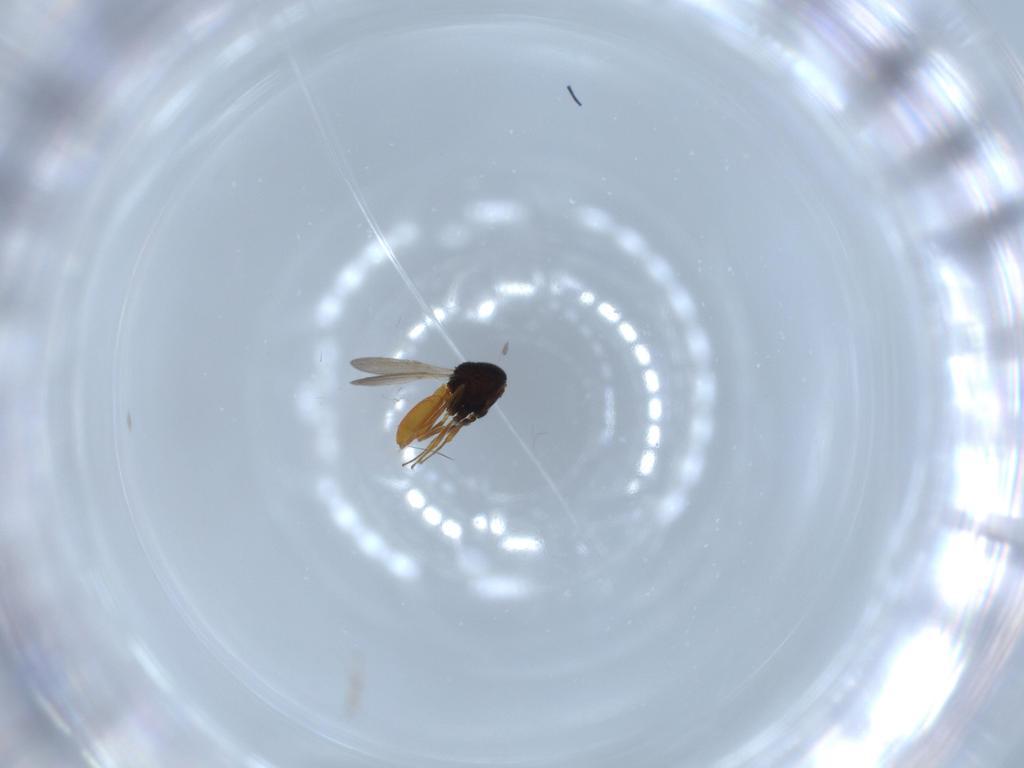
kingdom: Animalia
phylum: Arthropoda
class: Insecta
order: Hymenoptera
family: Scelionidae
